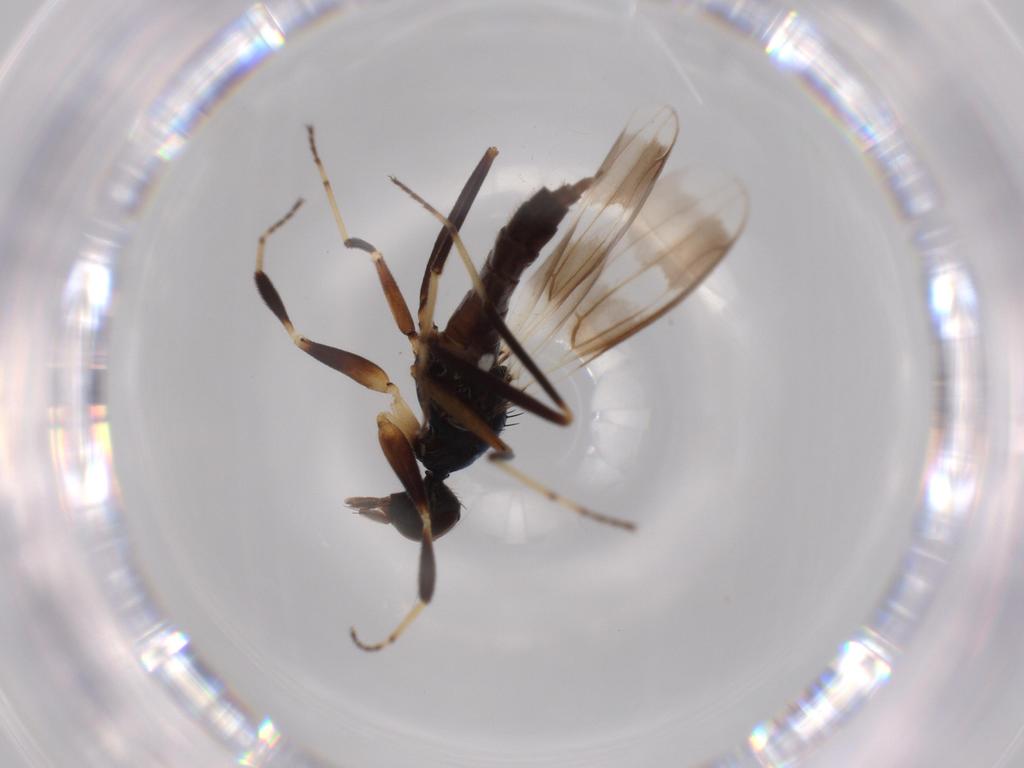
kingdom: Animalia
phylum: Arthropoda
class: Insecta
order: Diptera
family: Hybotidae
